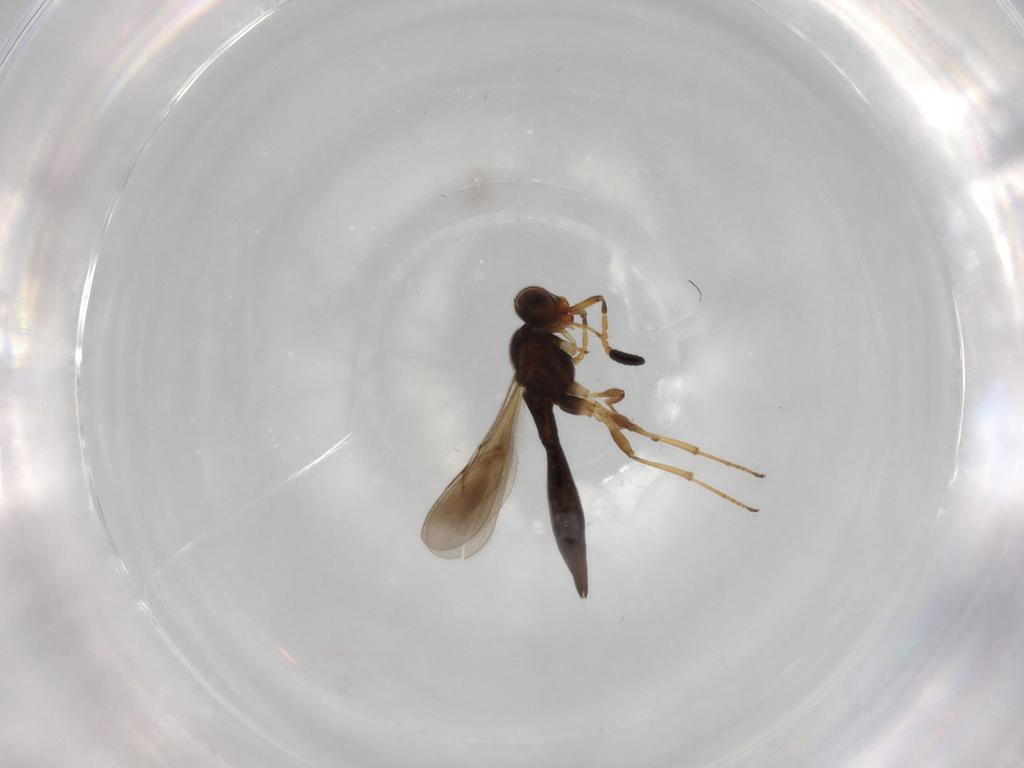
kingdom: Animalia
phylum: Arthropoda
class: Insecta
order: Hymenoptera
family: Scelionidae
